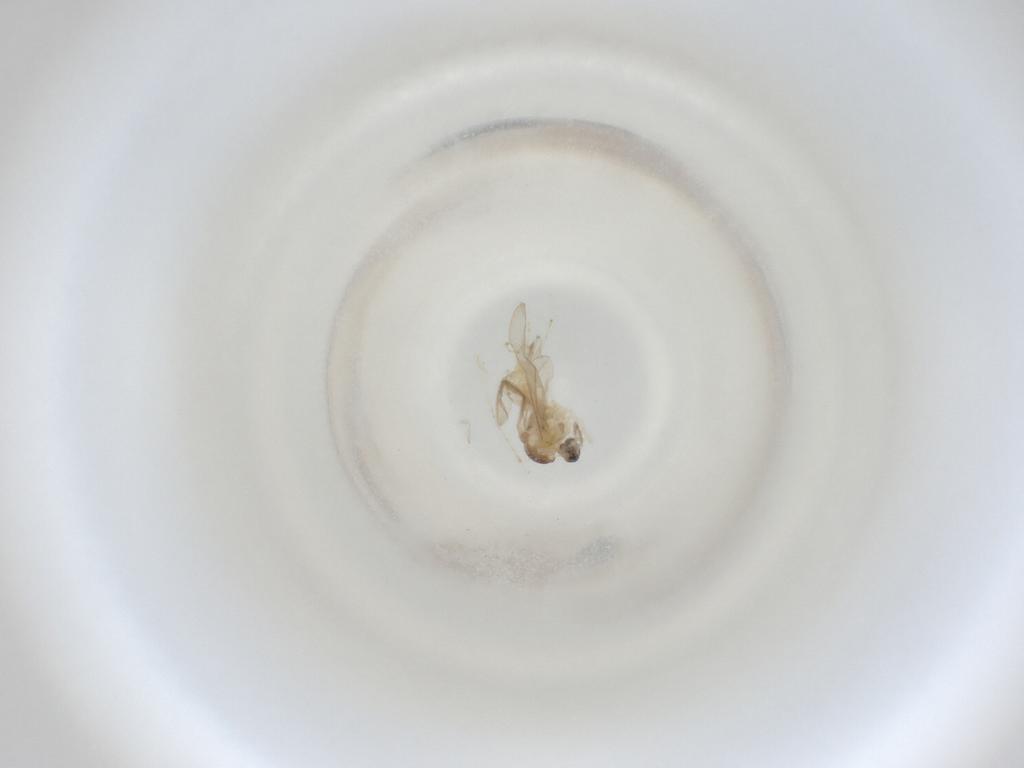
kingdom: Animalia
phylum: Arthropoda
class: Insecta
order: Diptera
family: Cecidomyiidae
